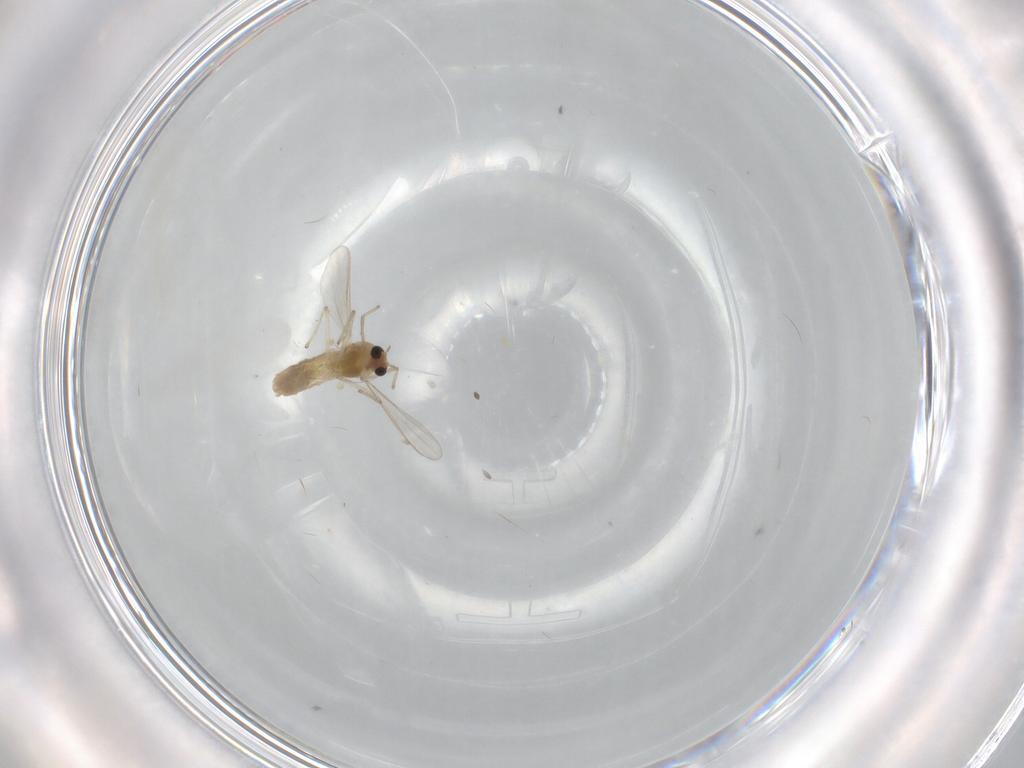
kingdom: Animalia
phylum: Arthropoda
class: Insecta
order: Diptera
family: Chironomidae
